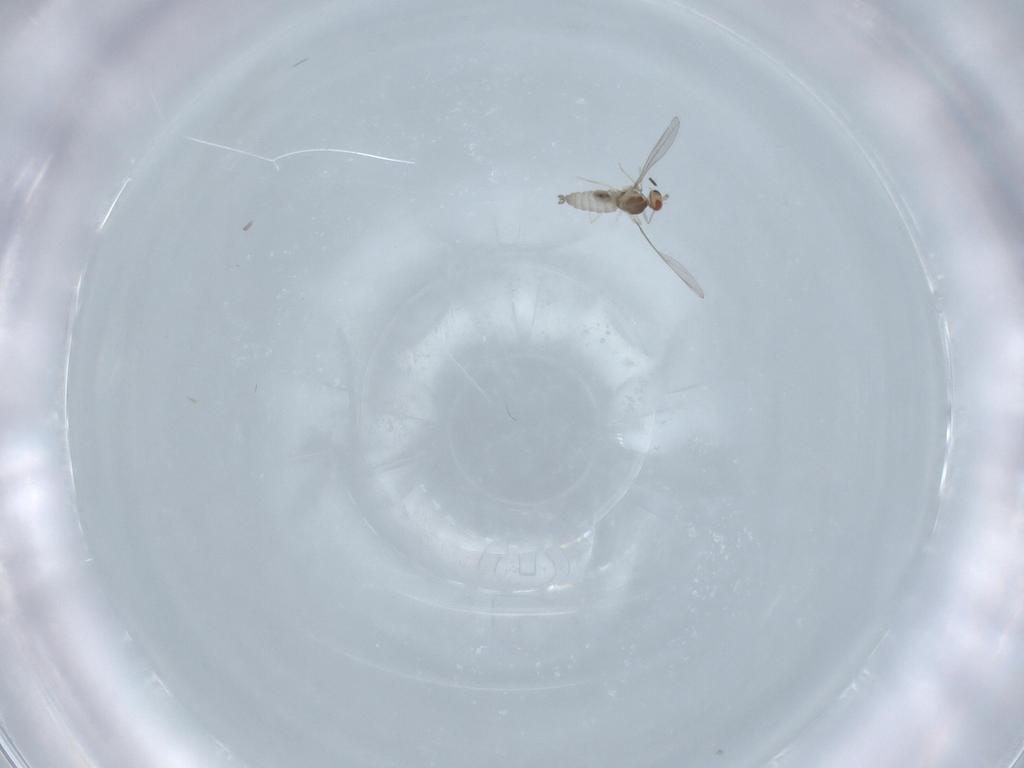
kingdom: Animalia
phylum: Arthropoda
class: Insecta
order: Diptera
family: Cecidomyiidae
